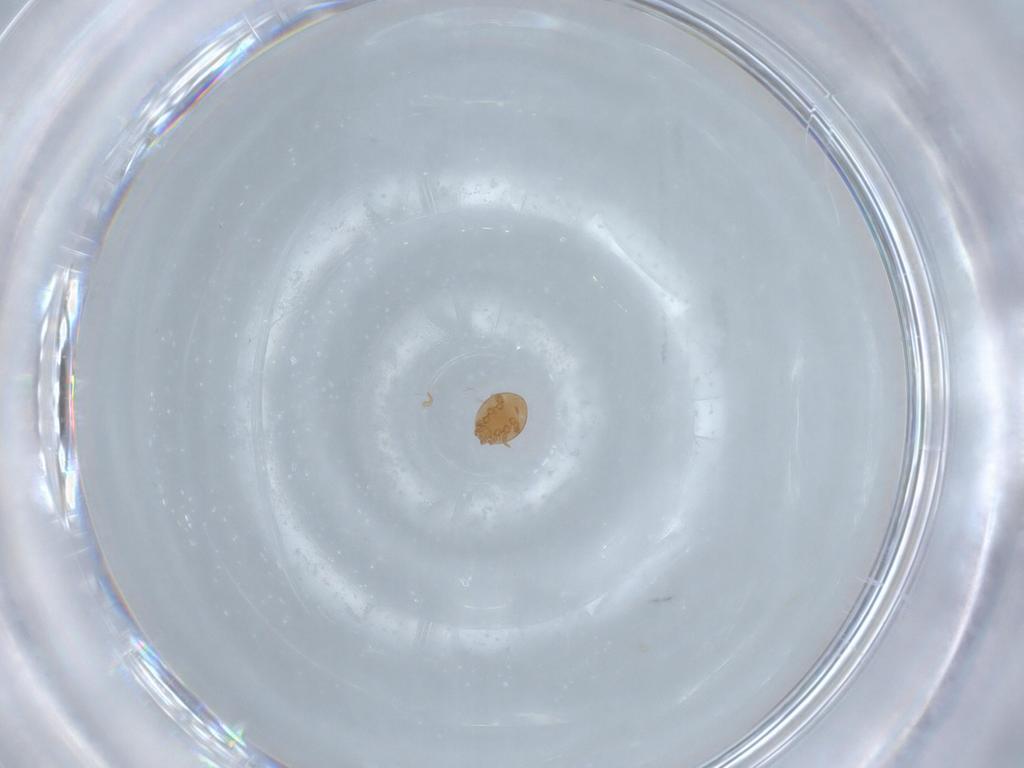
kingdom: Animalia
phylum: Arthropoda
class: Arachnida
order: Mesostigmata
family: Trematuridae
